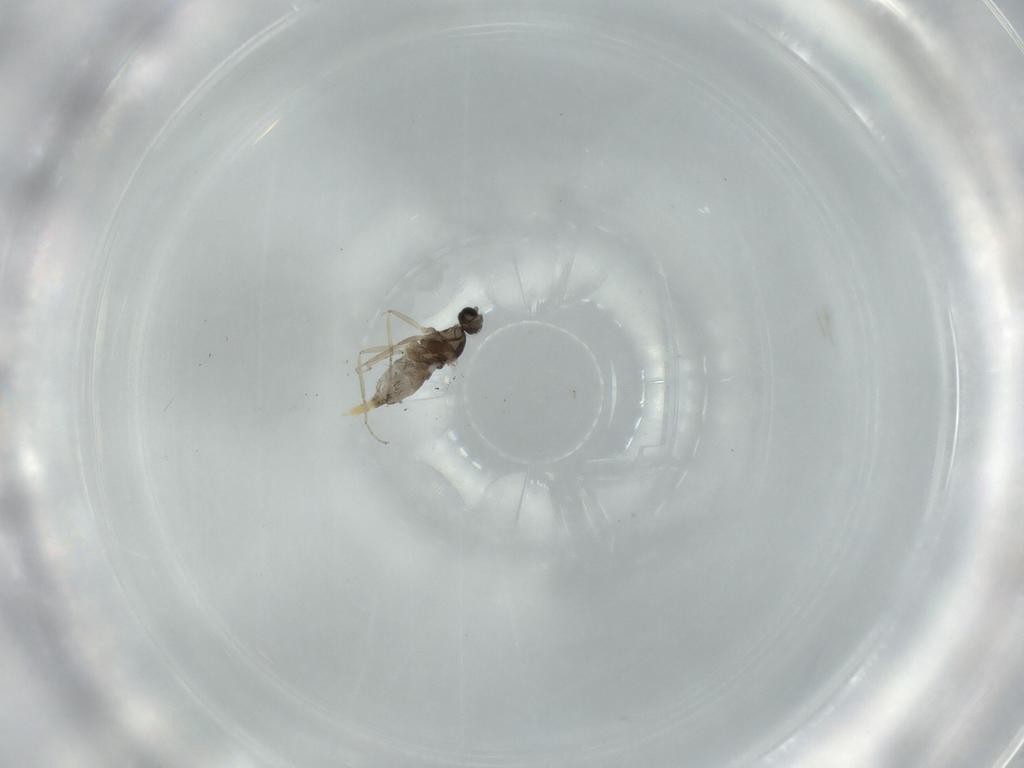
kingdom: Animalia
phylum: Arthropoda
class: Insecta
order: Diptera
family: Cecidomyiidae
